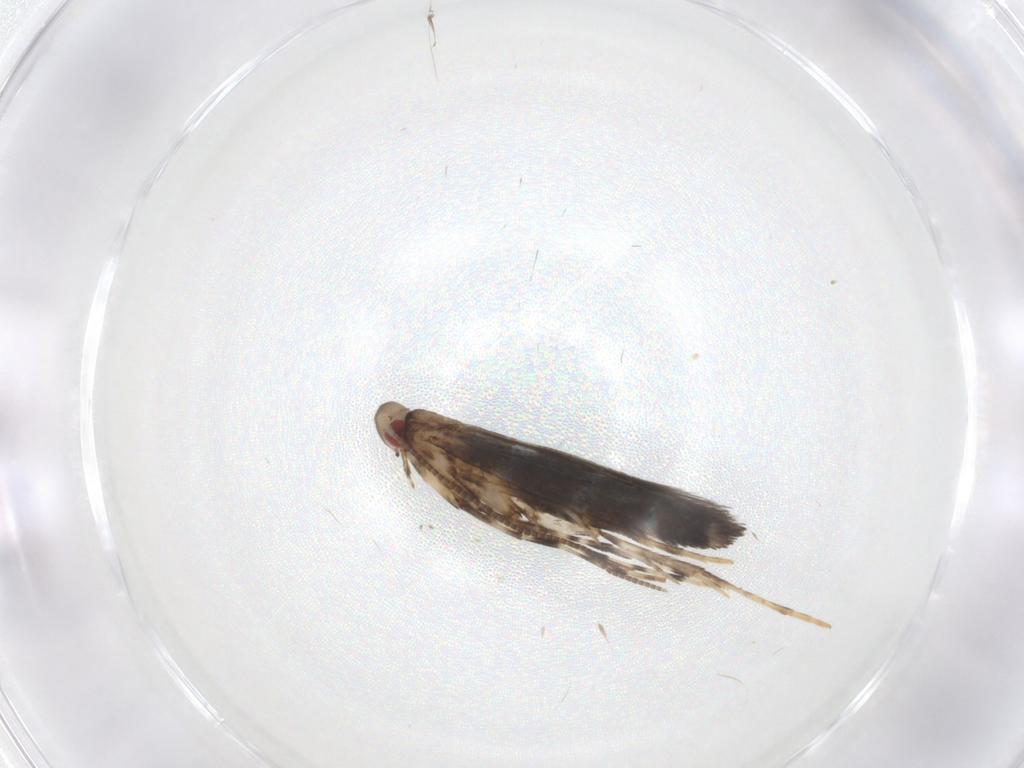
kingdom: Animalia
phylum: Arthropoda
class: Insecta
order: Lepidoptera
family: Gracillariidae
